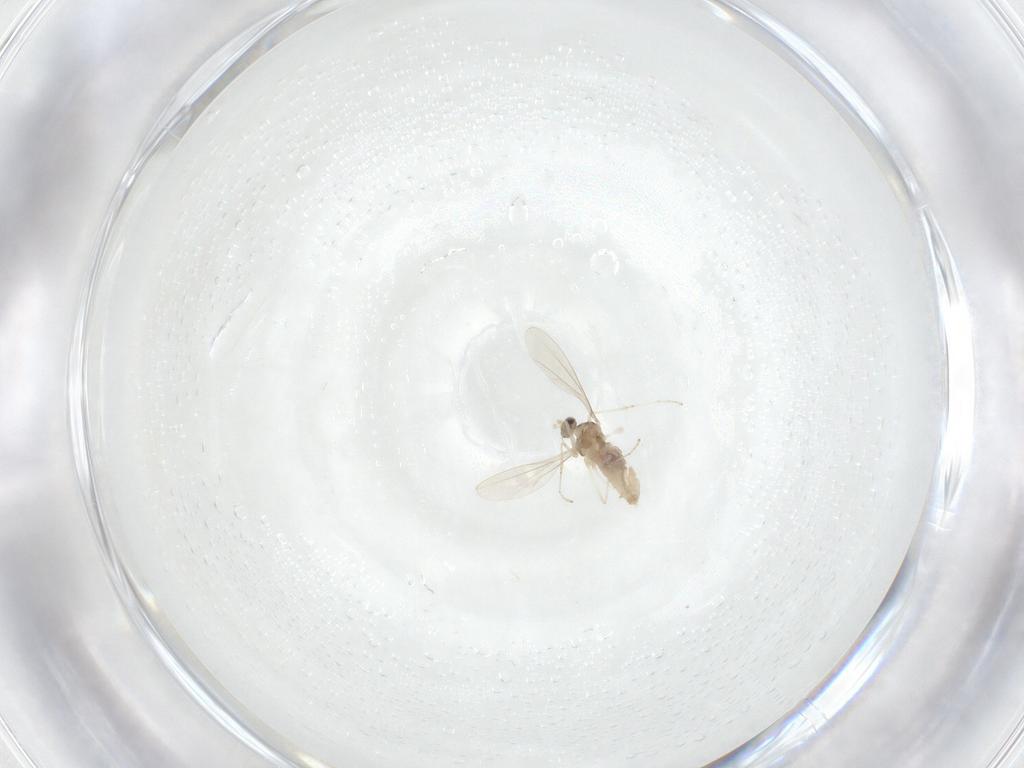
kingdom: Animalia
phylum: Arthropoda
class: Insecta
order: Diptera
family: Cecidomyiidae
